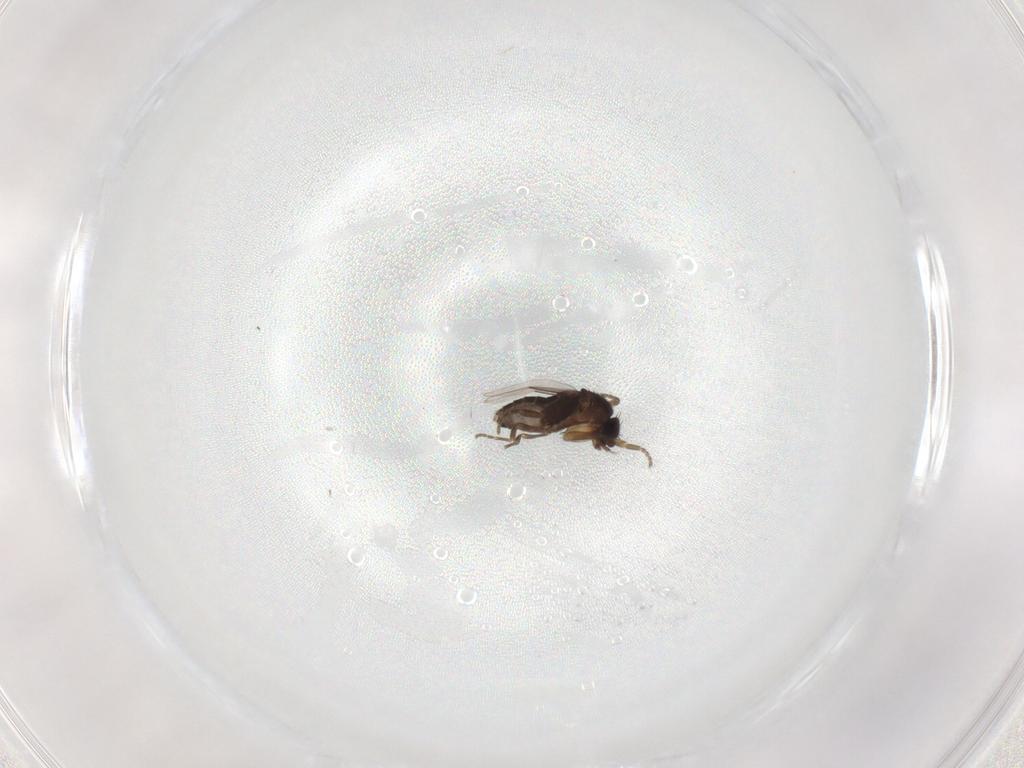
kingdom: Animalia
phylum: Arthropoda
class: Insecta
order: Diptera
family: Phoridae
